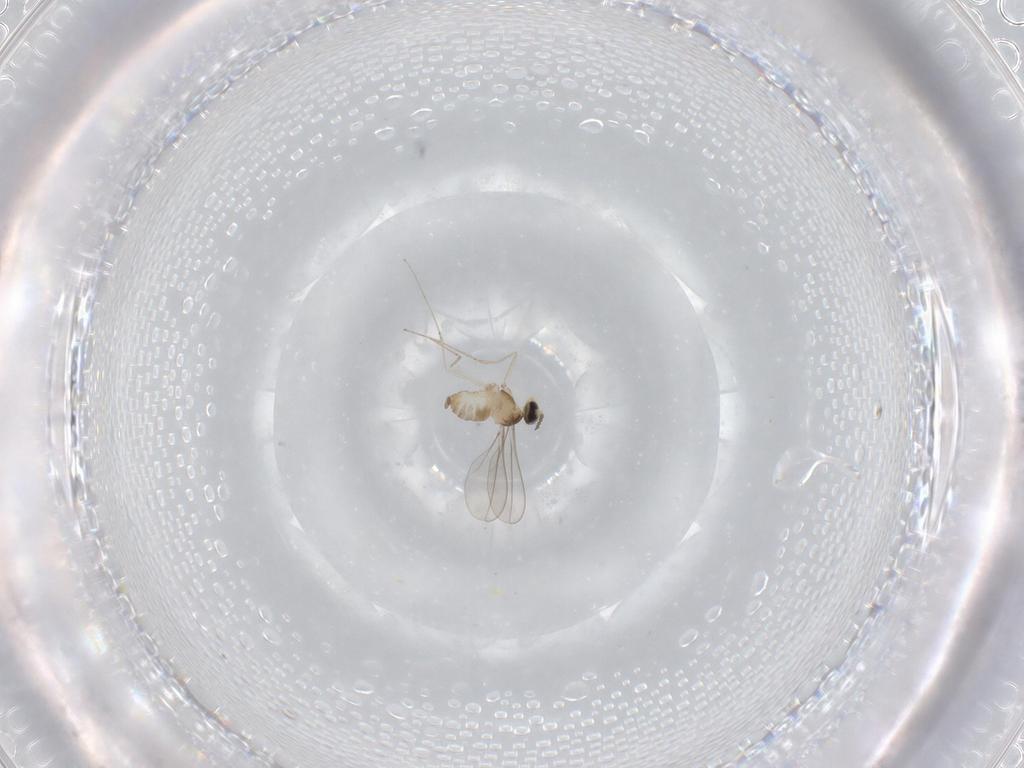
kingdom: Animalia
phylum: Arthropoda
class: Insecta
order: Diptera
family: Cecidomyiidae
